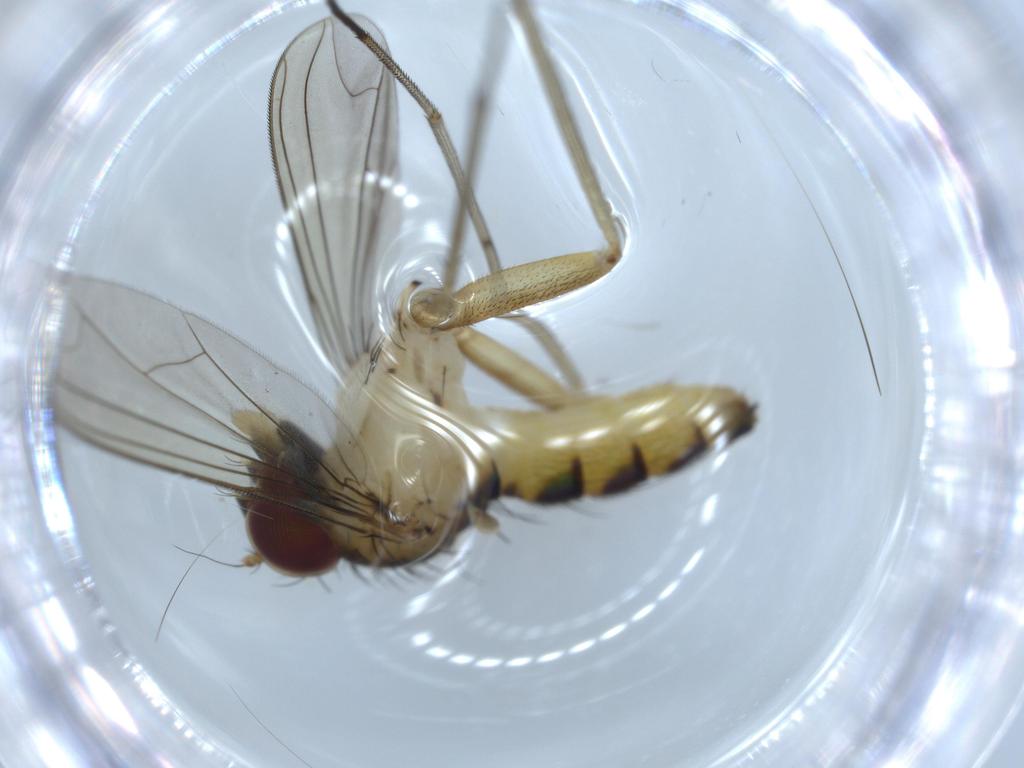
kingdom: Animalia
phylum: Arthropoda
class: Insecta
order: Diptera
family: Dolichopodidae
